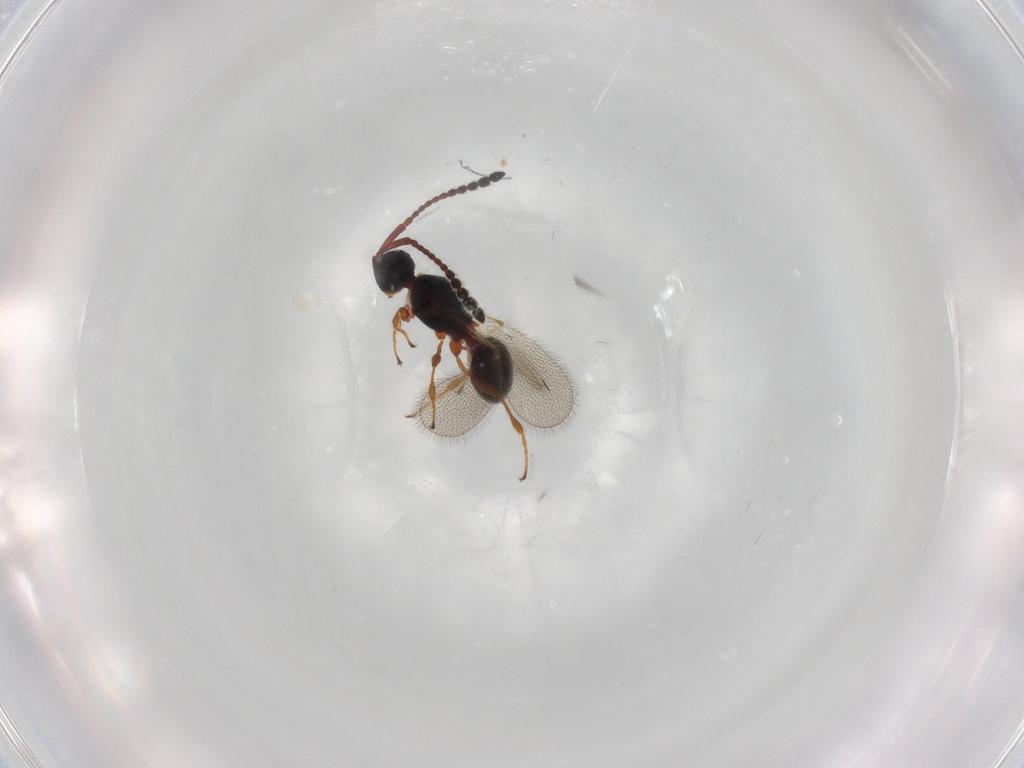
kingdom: Animalia
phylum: Arthropoda
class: Insecta
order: Hymenoptera
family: Diapriidae
